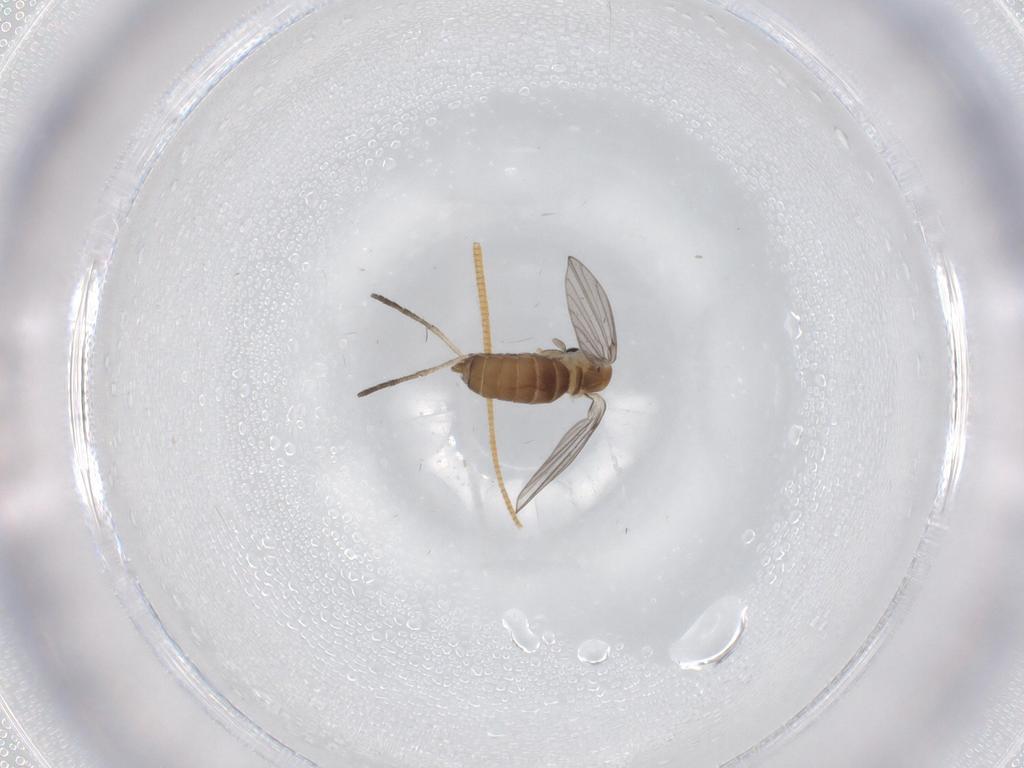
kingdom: Animalia
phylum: Arthropoda
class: Insecta
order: Diptera
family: Psychodidae
